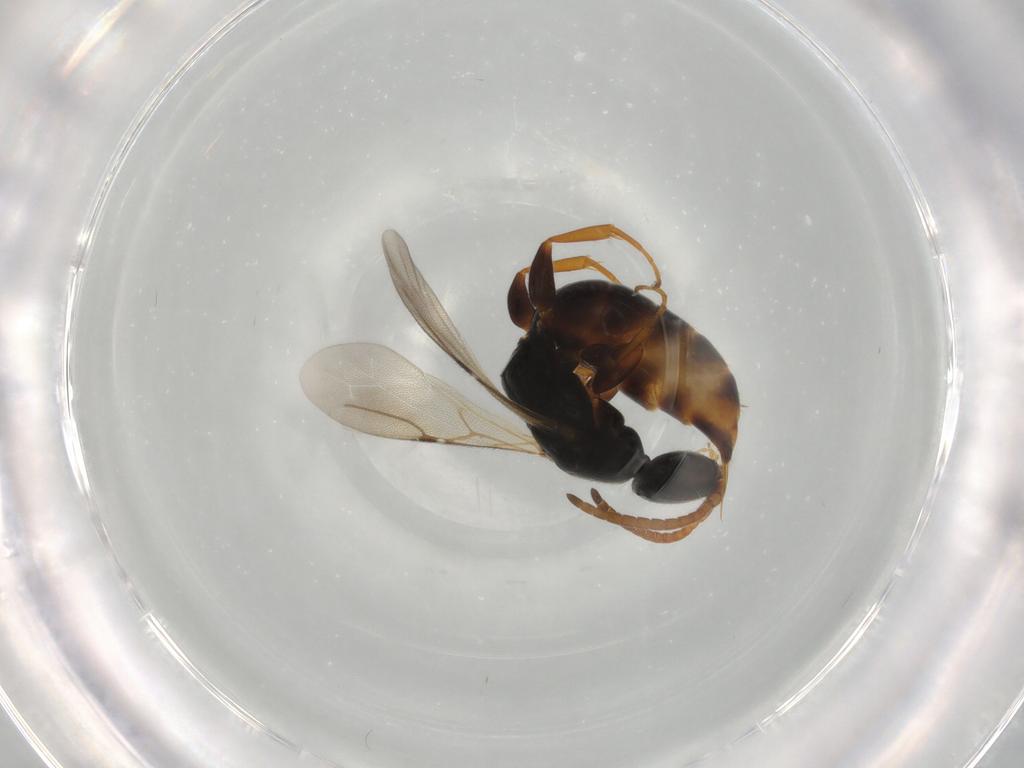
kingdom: Animalia
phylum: Arthropoda
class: Insecta
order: Hymenoptera
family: Bethylidae
